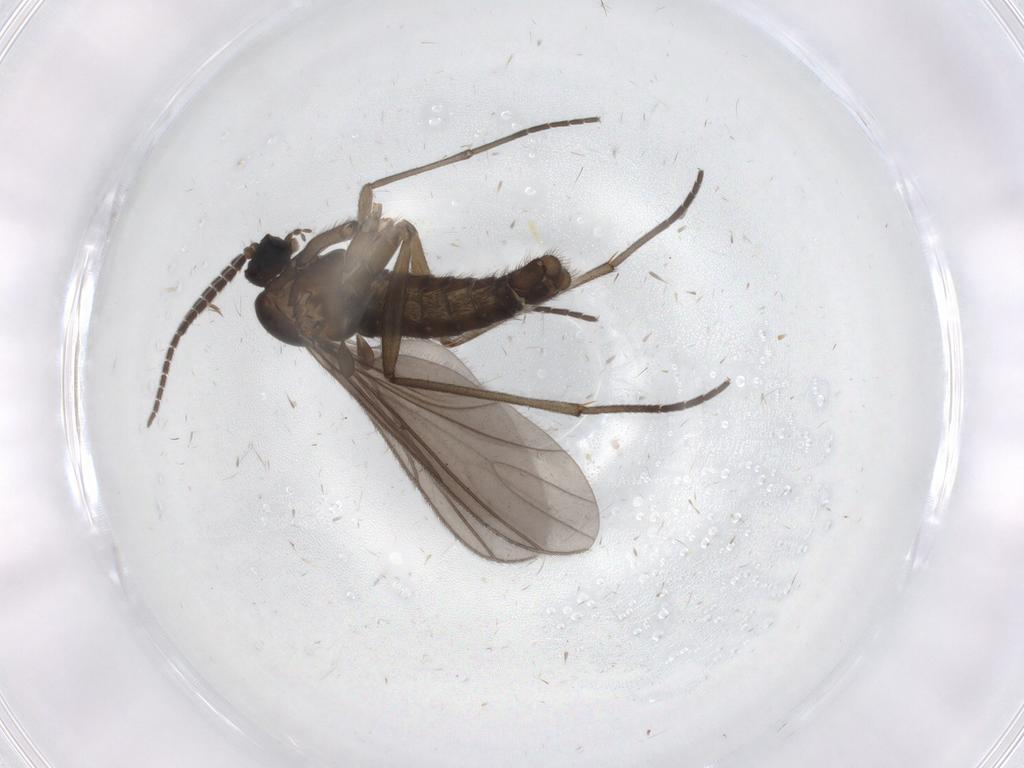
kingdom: Animalia
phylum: Arthropoda
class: Insecta
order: Diptera
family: Sciaridae
